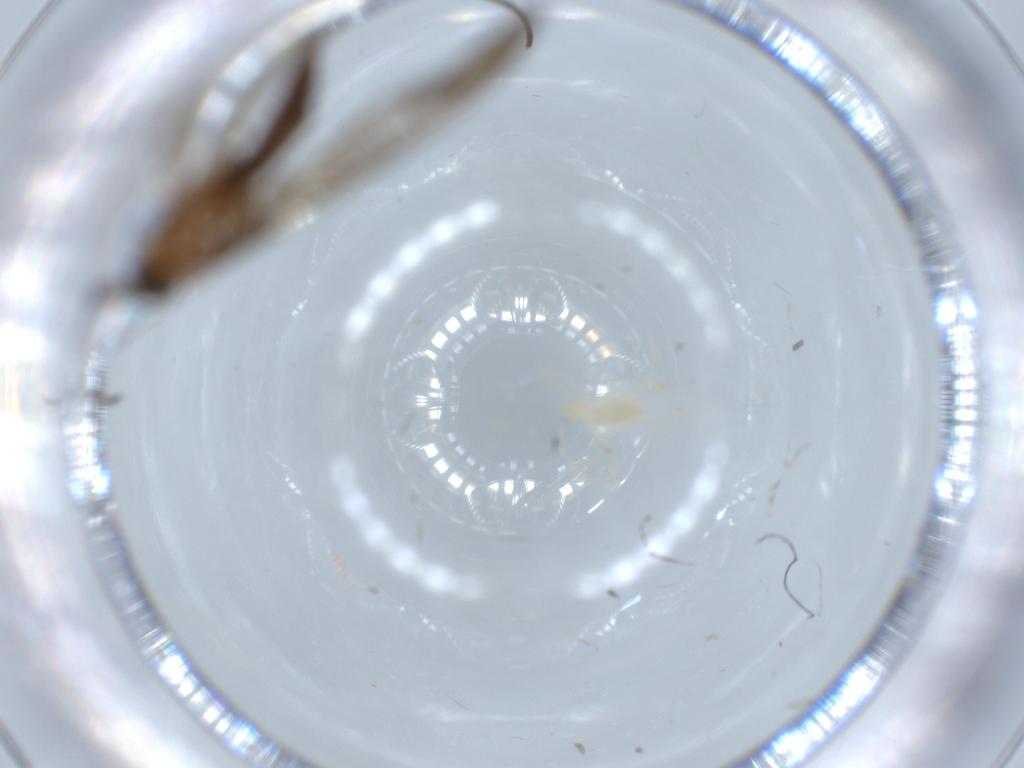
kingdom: Animalia
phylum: Arthropoda
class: Insecta
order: Diptera
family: Sciaridae
